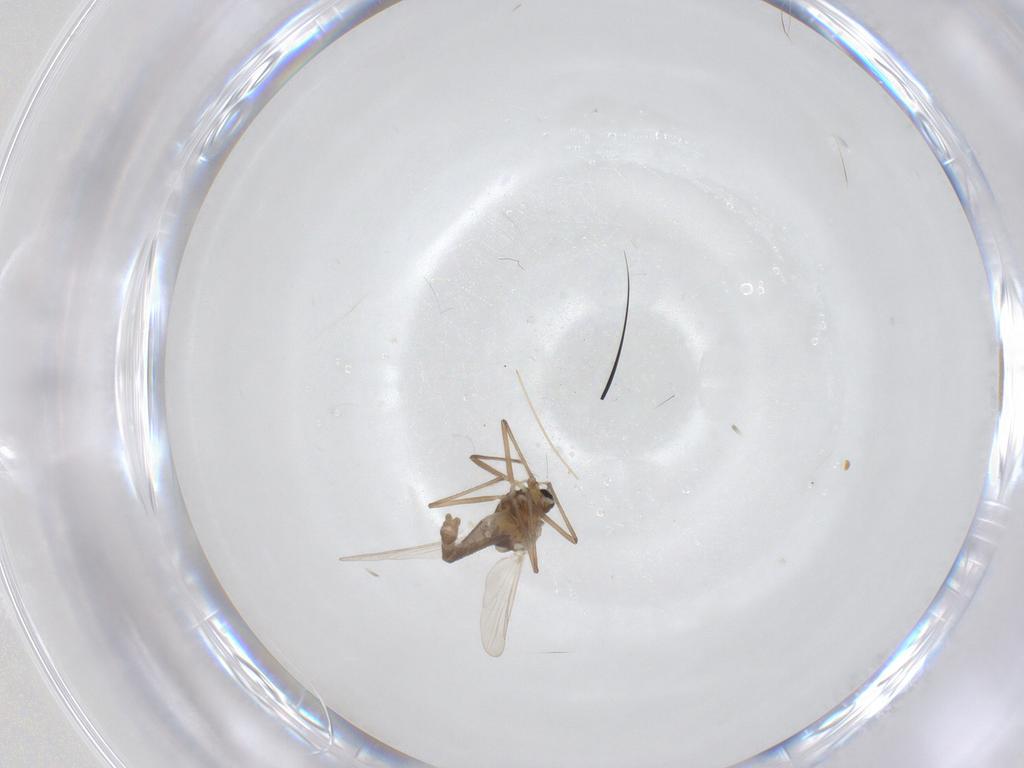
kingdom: Animalia
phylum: Arthropoda
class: Insecta
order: Diptera
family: Chironomidae
